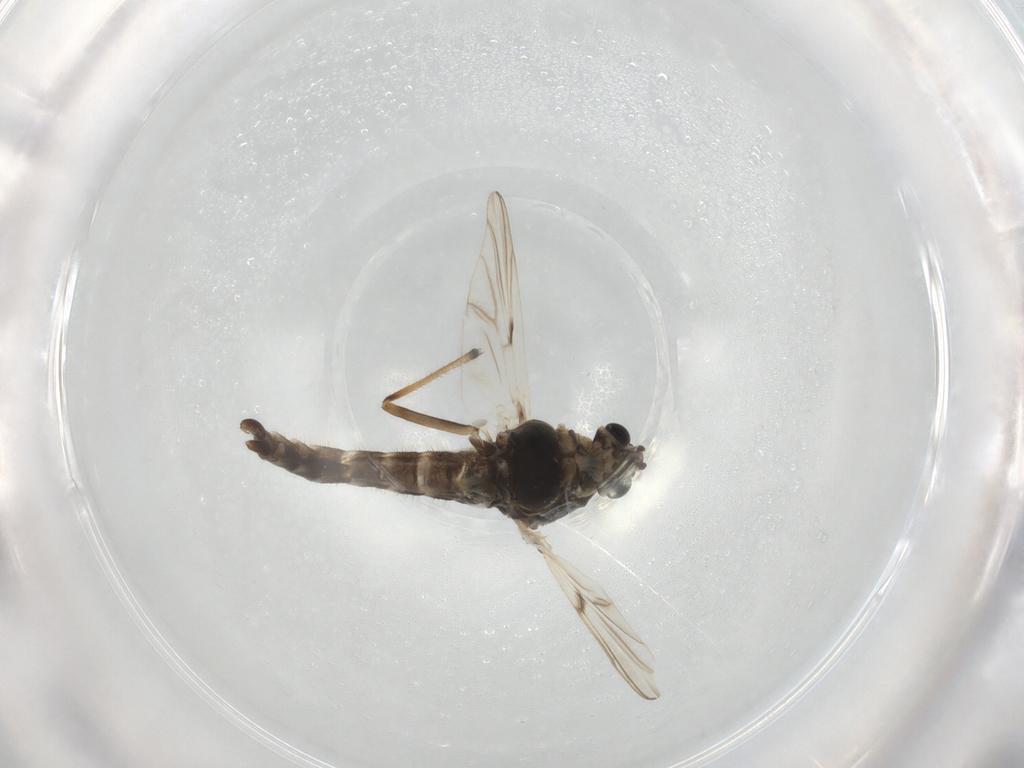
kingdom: Animalia
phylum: Arthropoda
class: Insecta
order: Diptera
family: Chironomidae
